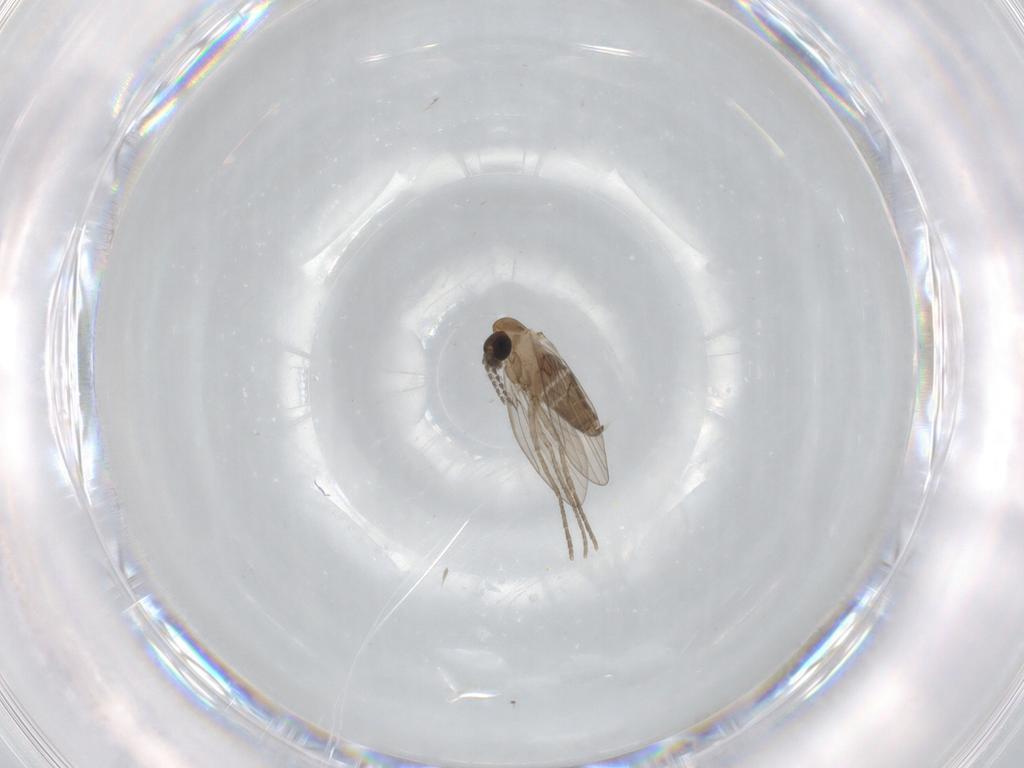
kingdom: Animalia
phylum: Arthropoda
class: Insecta
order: Diptera
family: Psychodidae
